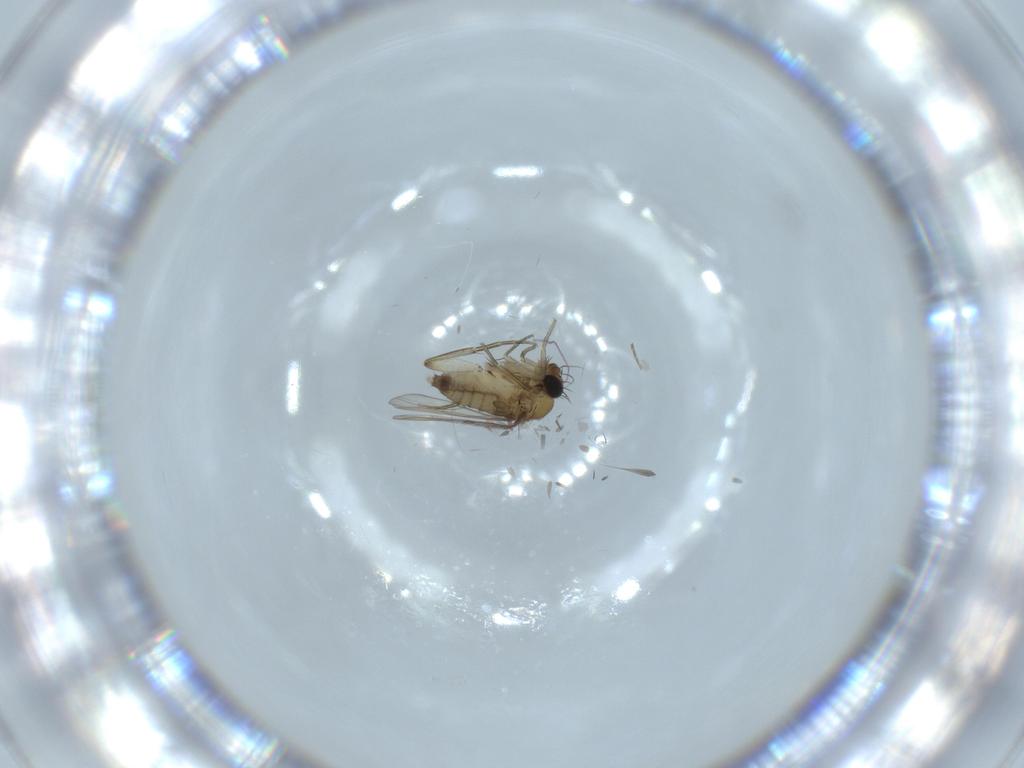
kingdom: Animalia
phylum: Arthropoda
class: Insecta
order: Diptera
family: Phoridae
